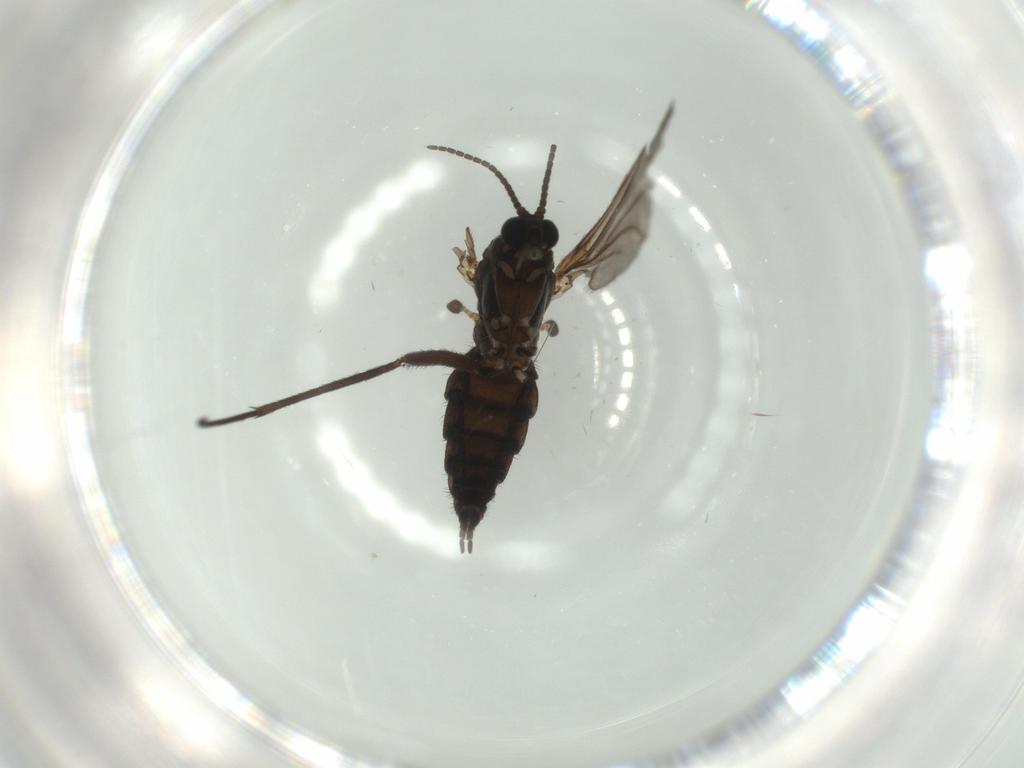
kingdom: Animalia
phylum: Arthropoda
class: Insecta
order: Diptera
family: Sciaridae
